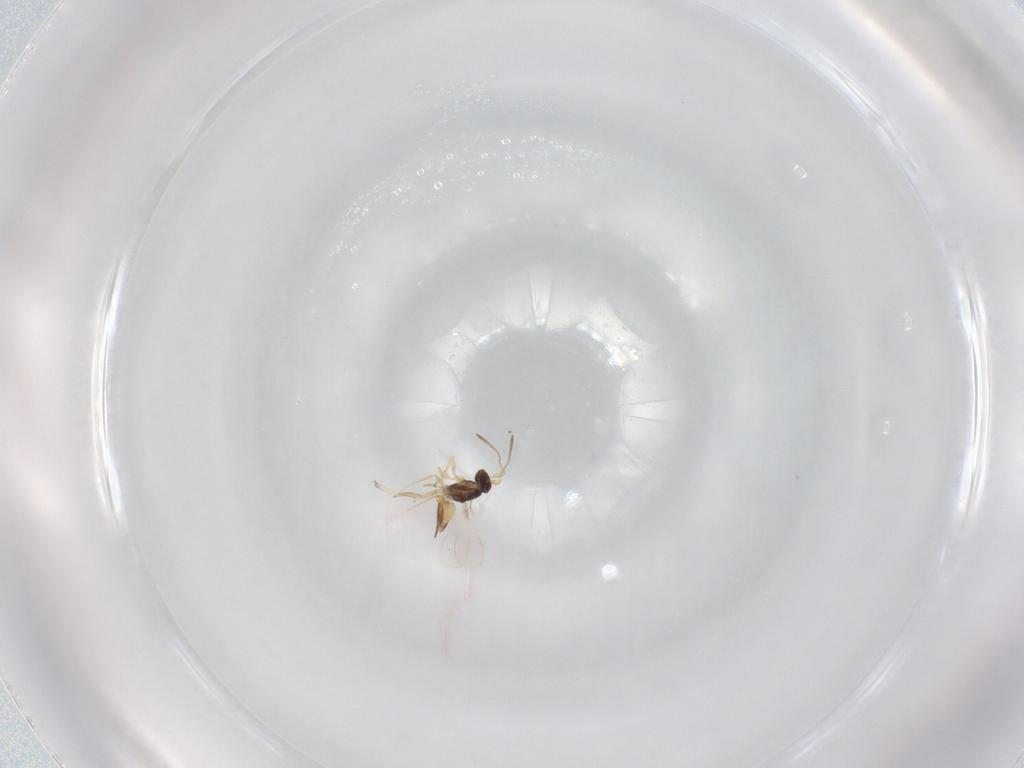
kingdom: Animalia
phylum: Arthropoda
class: Insecta
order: Hymenoptera
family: Mymaridae
